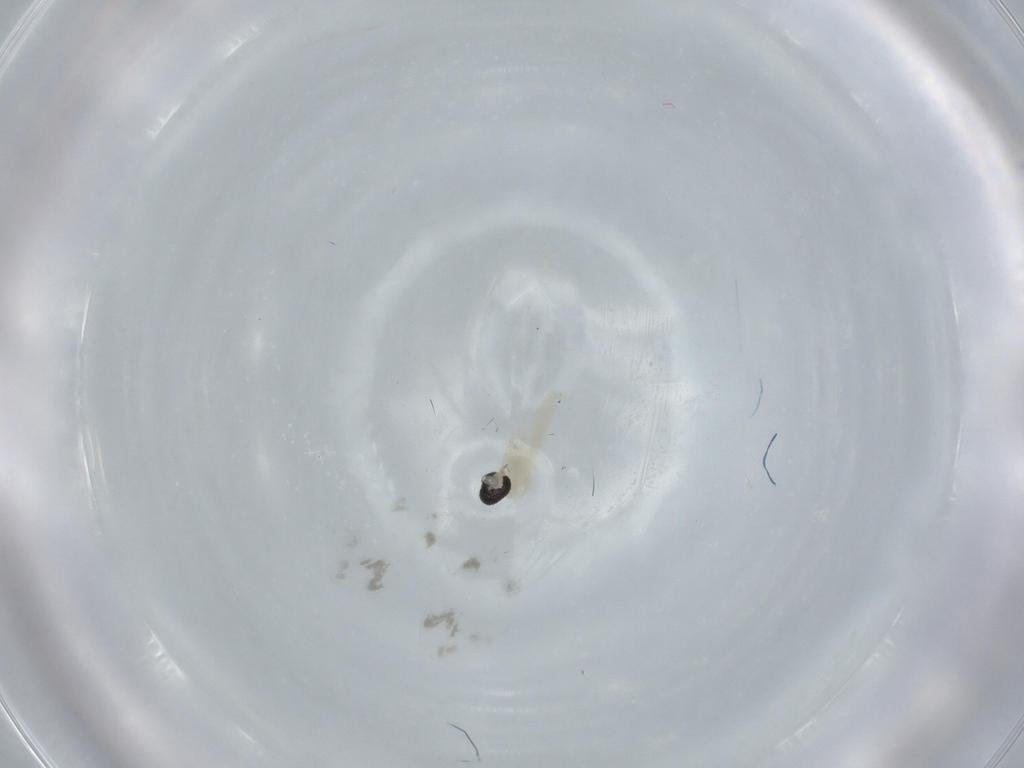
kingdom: Animalia
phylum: Arthropoda
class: Insecta
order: Diptera
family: Cecidomyiidae
